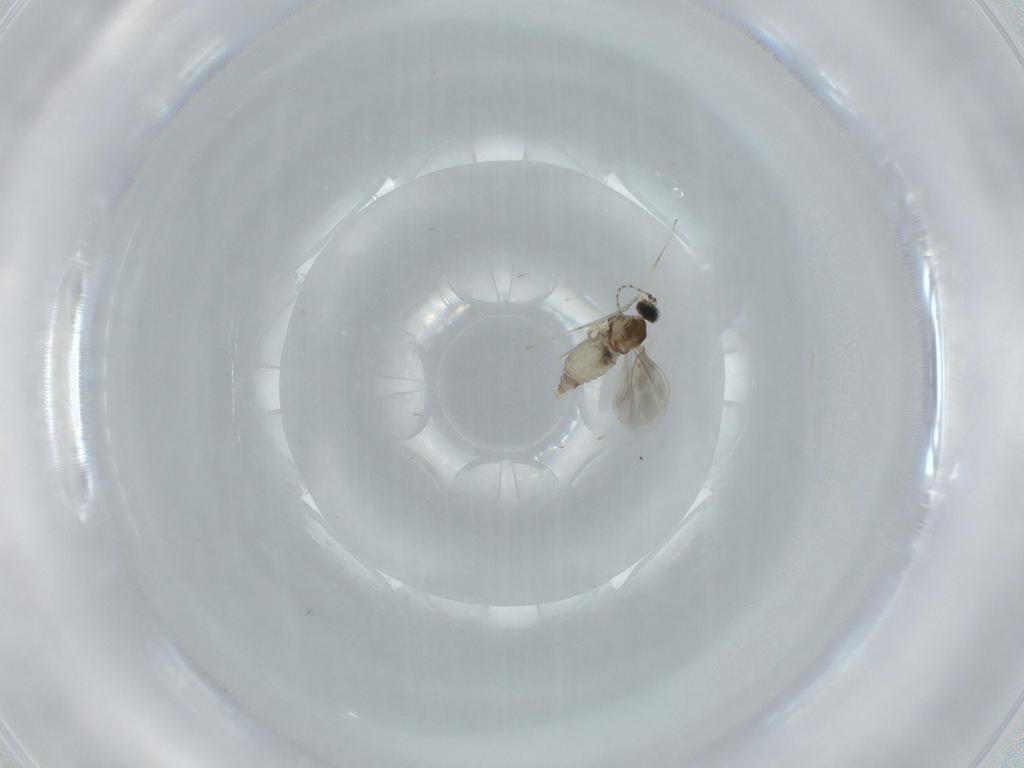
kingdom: Animalia
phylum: Arthropoda
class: Insecta
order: Diptera
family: Cecidomyiidae
